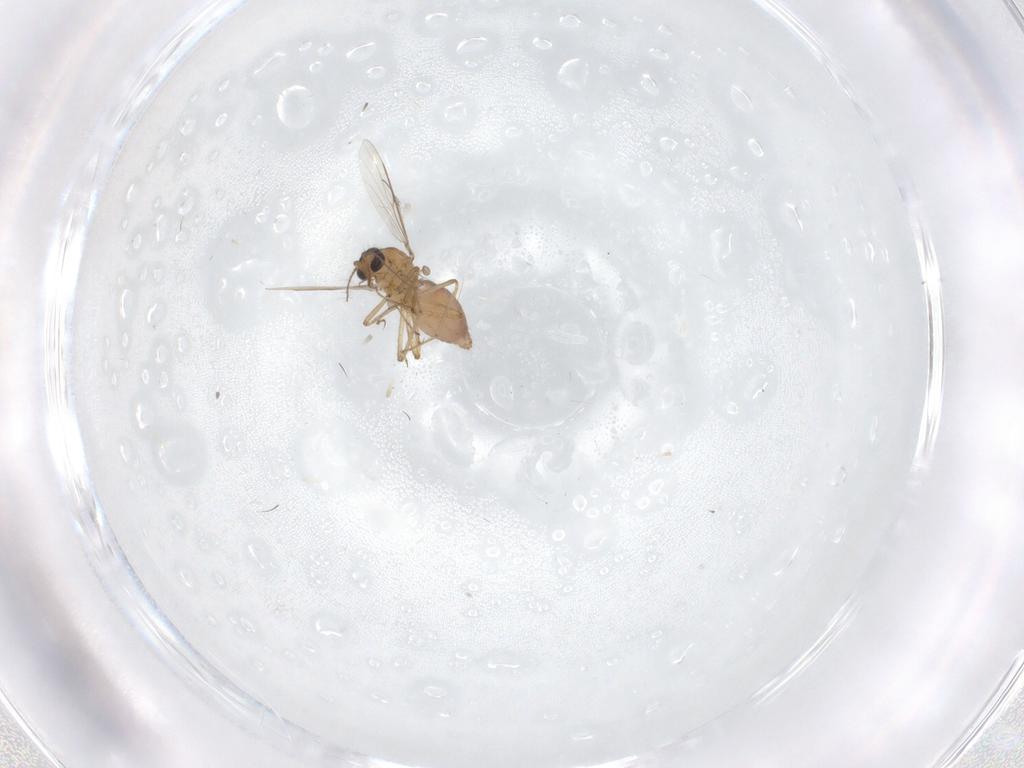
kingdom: Animalia
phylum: Arthropoda
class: Insecta
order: Diptera
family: Ceratopogonidae
